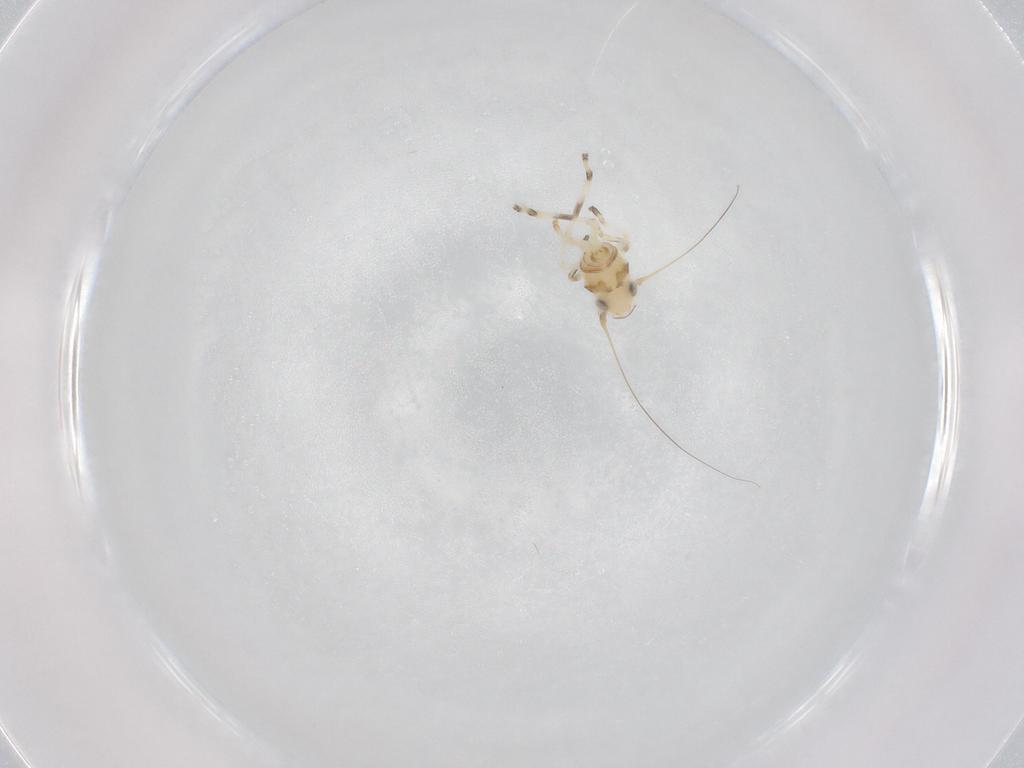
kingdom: Animalia
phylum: Arthropoda
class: Insecta
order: Hemiptera
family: Cicadellidae
